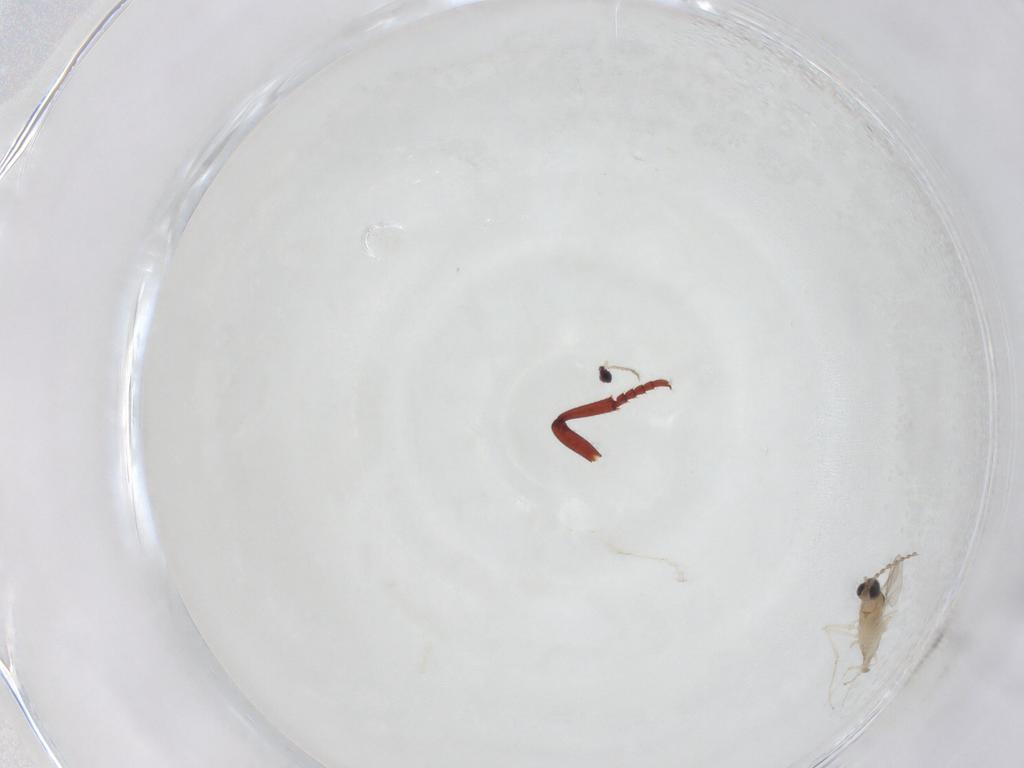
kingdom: Animalia
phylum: Arthropoda
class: Insecta
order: Diptera
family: Cecidomyiidae
